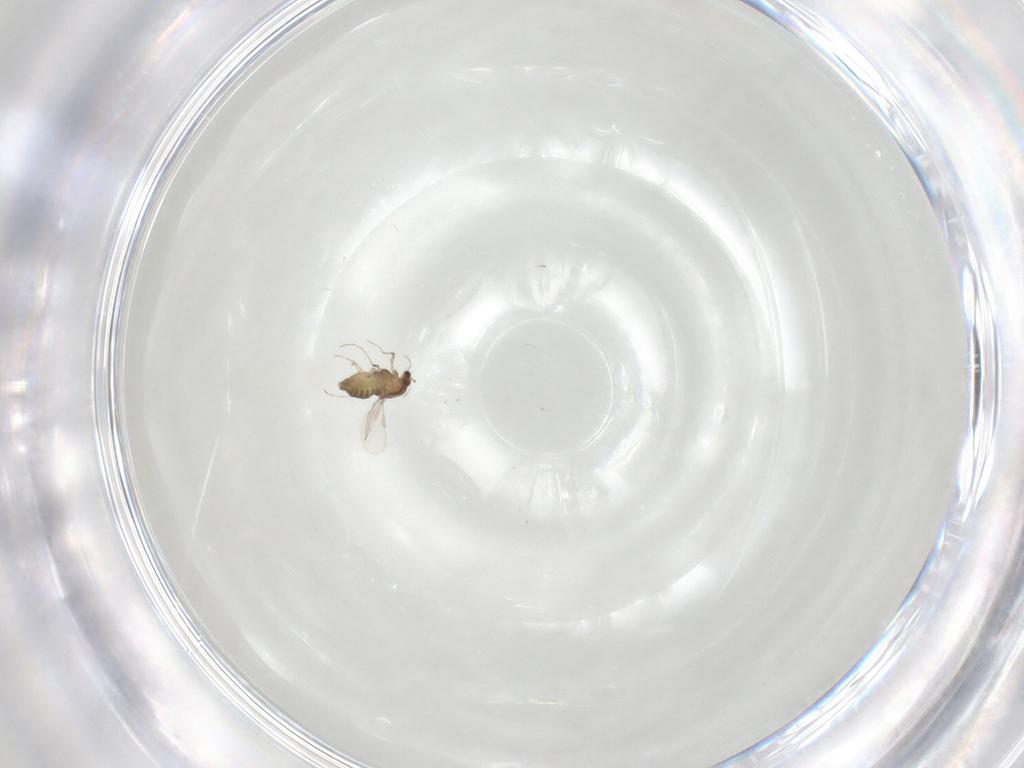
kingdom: Animalia
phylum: Arthropoda
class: Insecta
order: Diptera
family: Chironomidae
